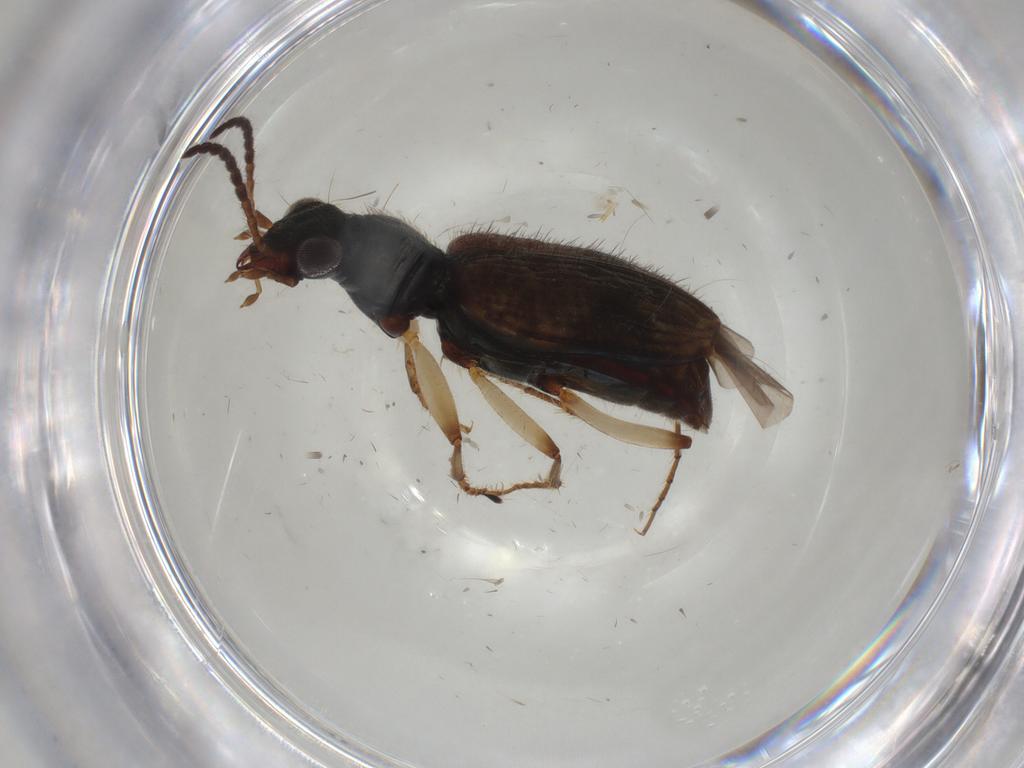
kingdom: Animalia
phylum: Arthropoda
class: Insecta
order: Coleoptera
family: Carabidae
